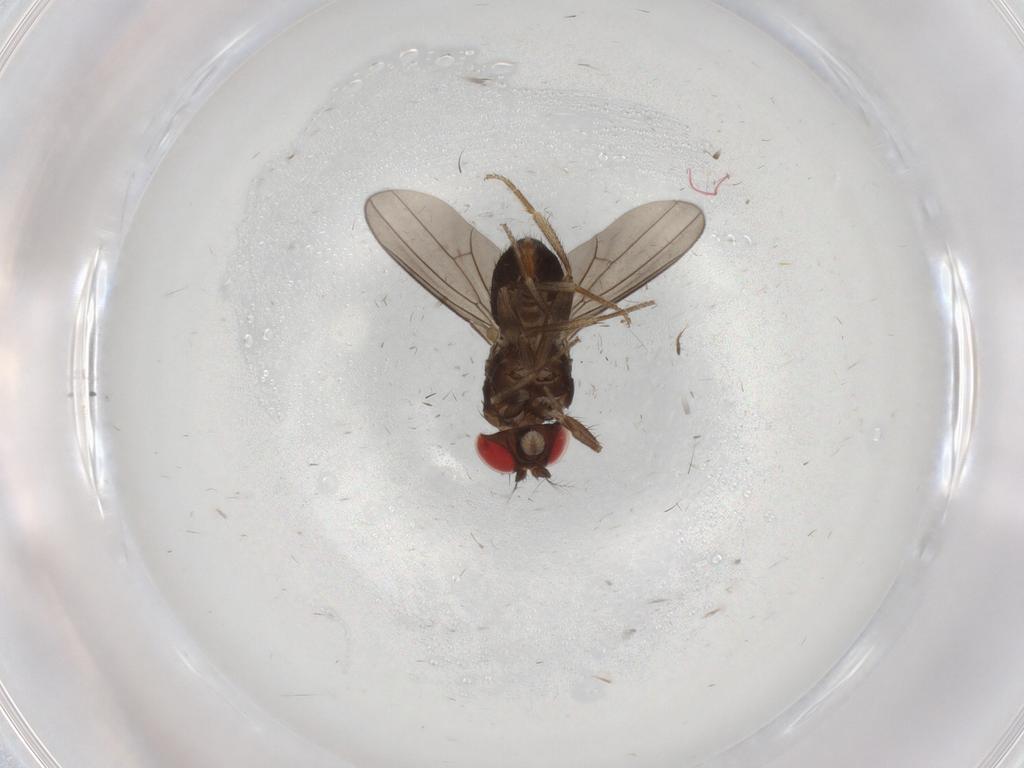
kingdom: Animalia
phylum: Arthropoda
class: Insecta
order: Diptera
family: Drosophilidae
